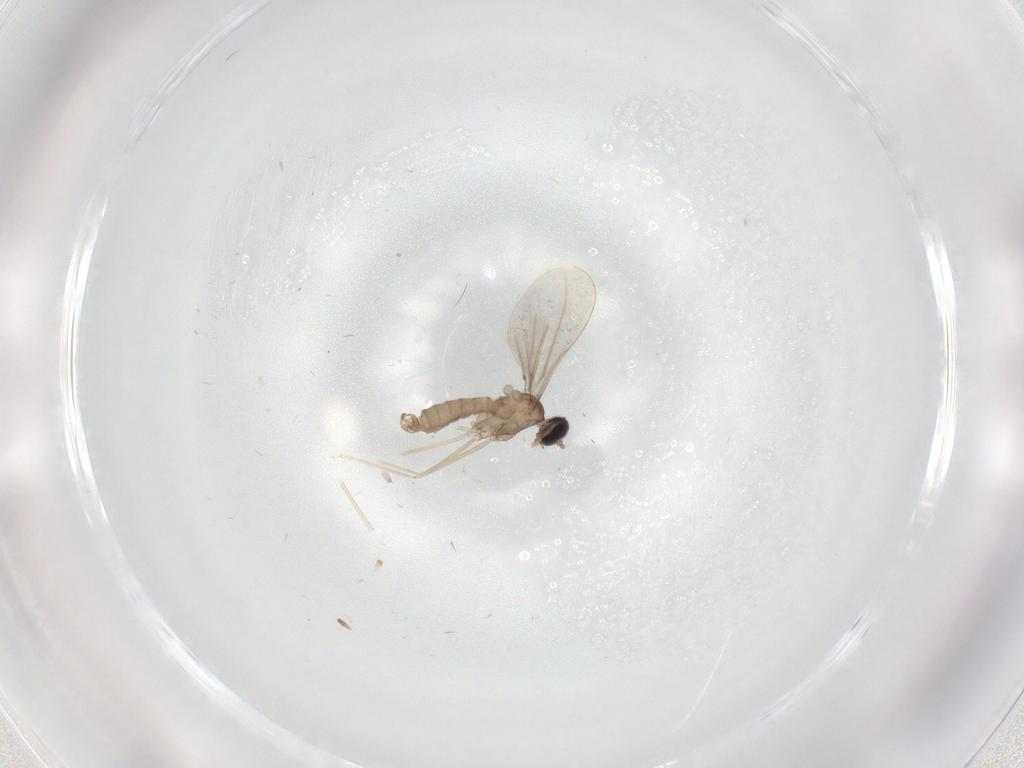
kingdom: Animalia
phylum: Arthropoda
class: Insecta
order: Diptera
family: Cecidomyiidae
